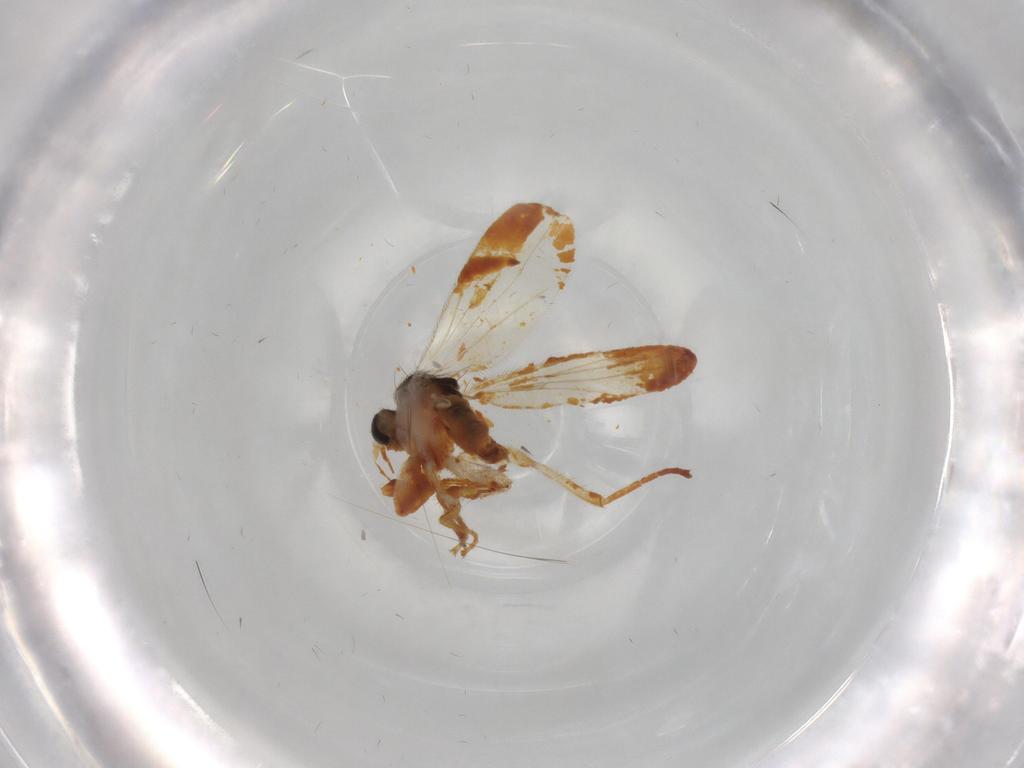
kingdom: Animalia
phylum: Arthropoda
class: Insecta
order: Diptera
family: Hybotidae
